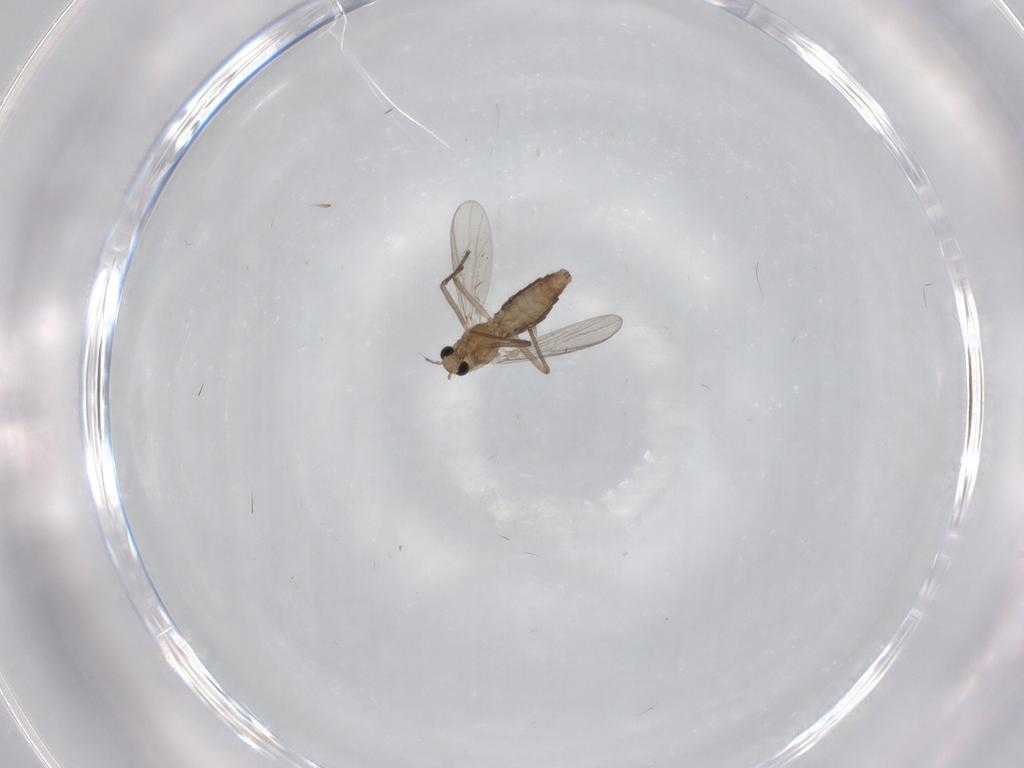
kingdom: Animalia
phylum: Arthropoda
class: Insecta
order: Diptera
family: Chironomidae
